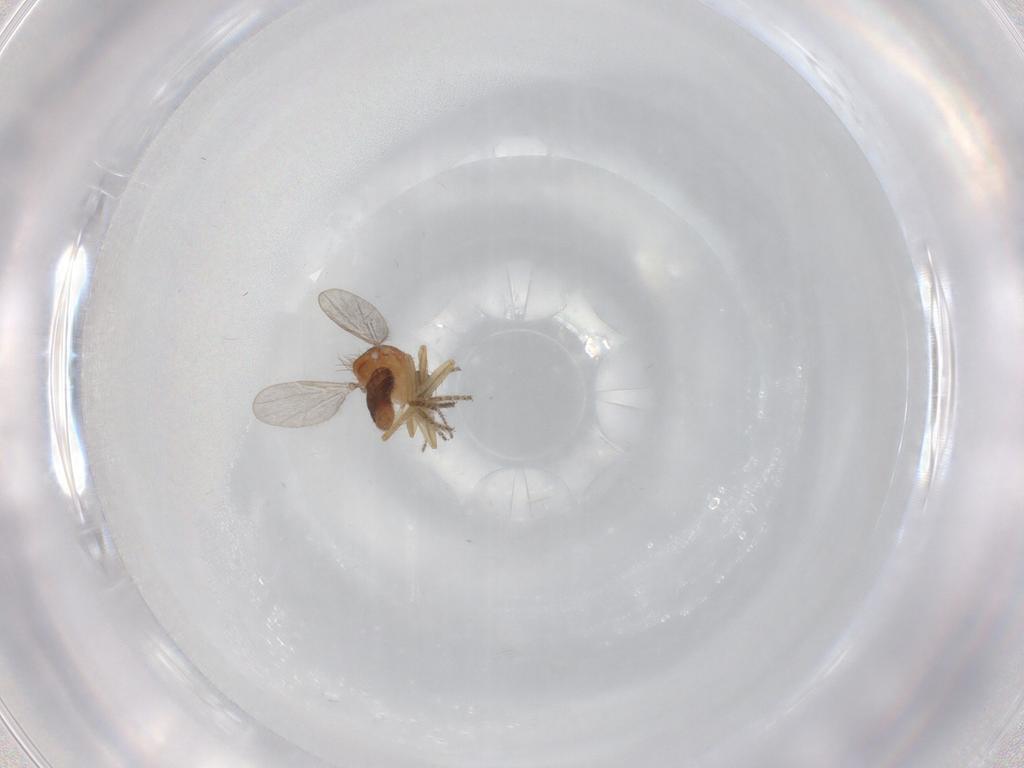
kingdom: Animalia
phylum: Arthropoda
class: Insecta
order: Diptera
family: Ceratopogonidae
